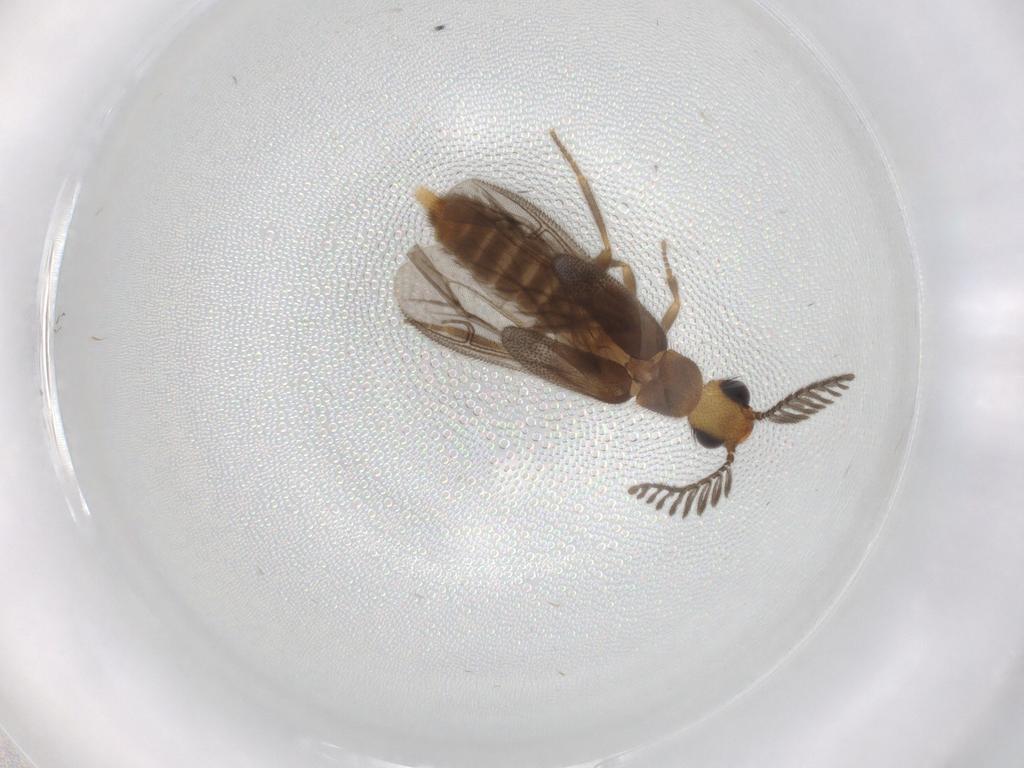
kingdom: Animalia
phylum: Arthropoda
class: Insecta
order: Coleoptera
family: Phengodidae
